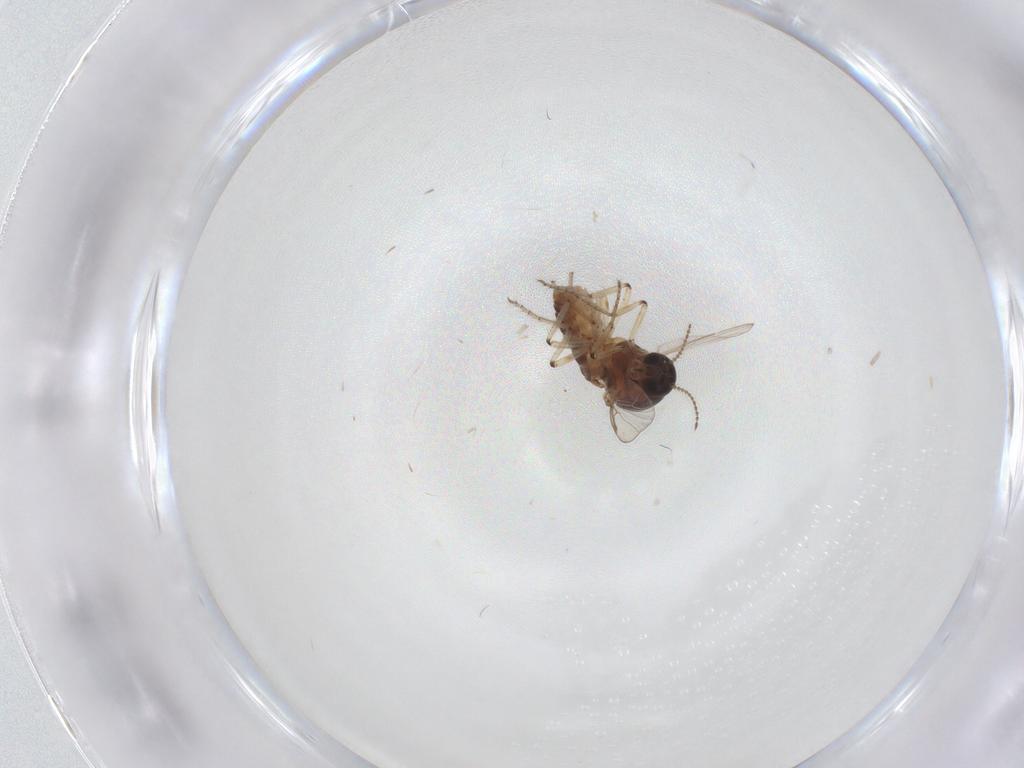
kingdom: Animalia
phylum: Arthropoda
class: Insecta
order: Diptera
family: Ceratopogonidae
